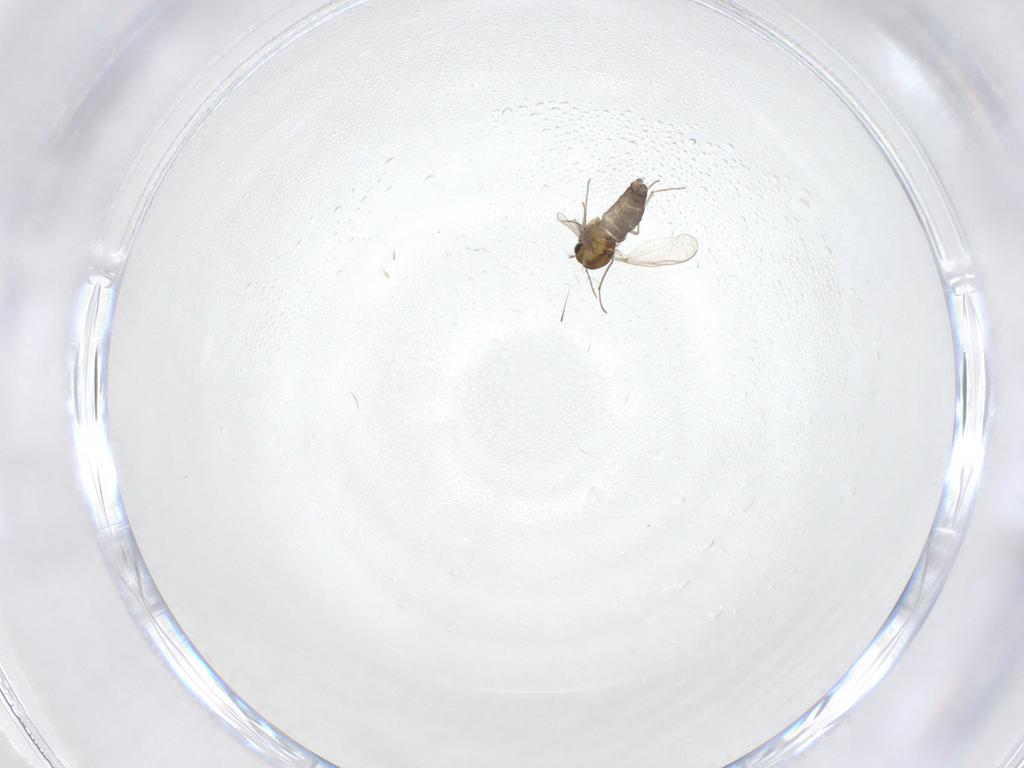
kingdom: Animalia
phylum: Arthropoda
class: Insecta
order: Diptera
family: Chironomidae
